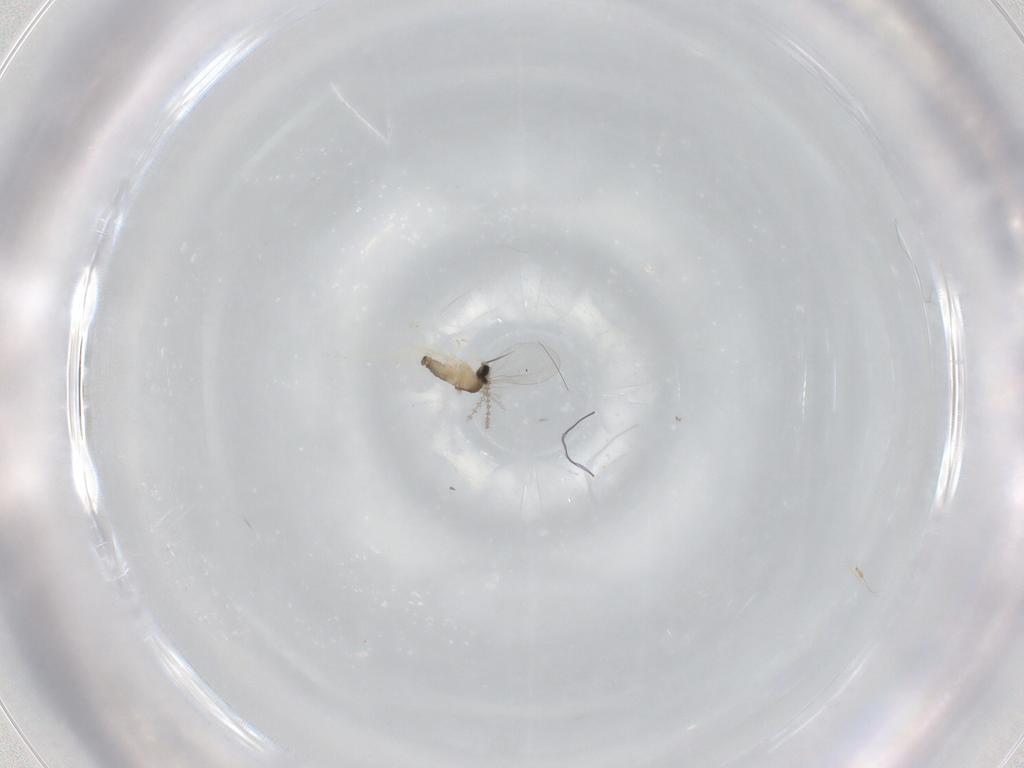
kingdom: Animalia
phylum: Arthropoda
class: Insecta
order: Diptera
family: Cecidomyiidae
